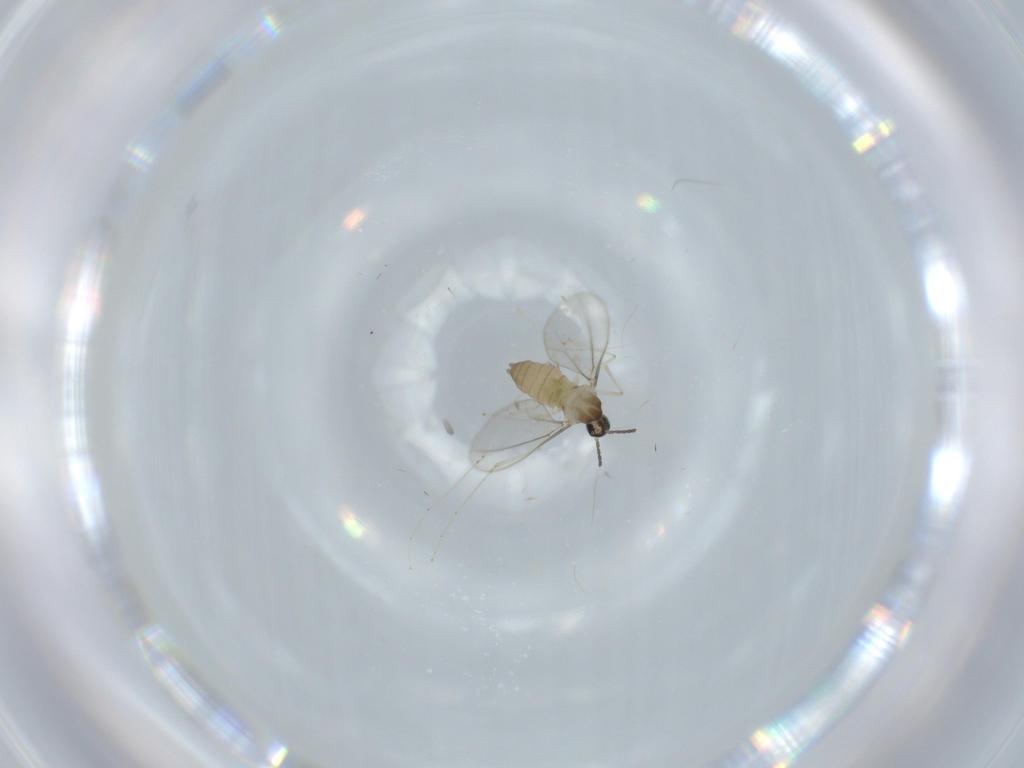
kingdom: Animalia
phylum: Arthropoda
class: Insecta
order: Diptera
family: Cecidomyiidae
